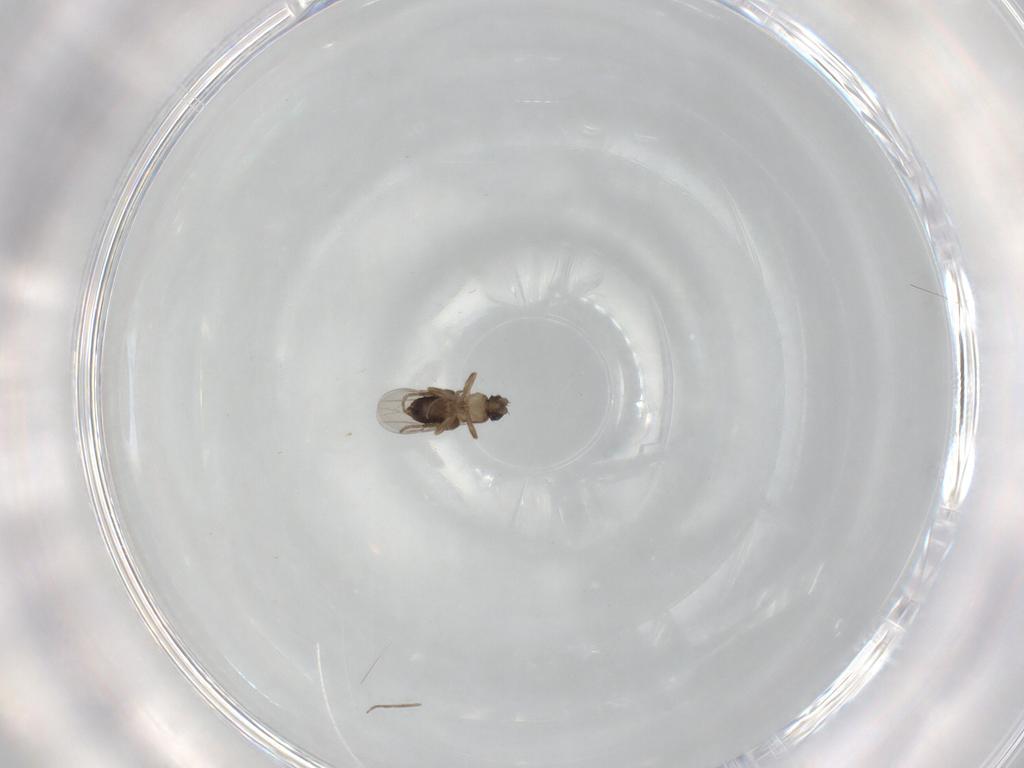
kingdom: Animalia
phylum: Arthropoda
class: Insecta
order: Diptera
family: Phoridae
